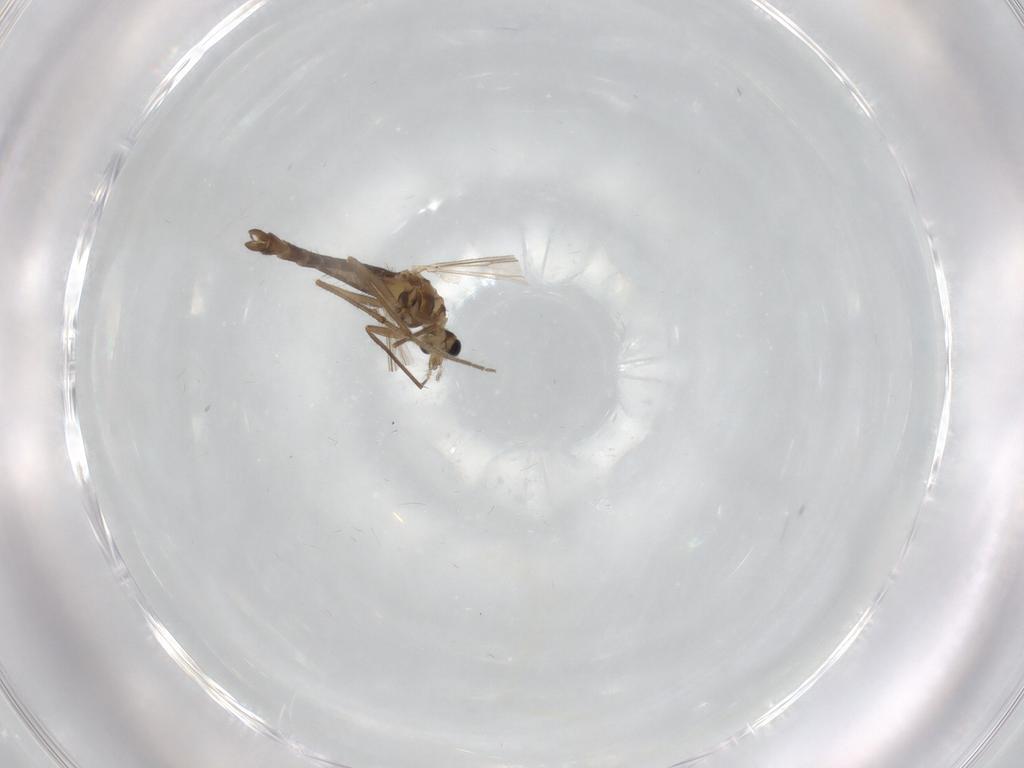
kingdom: Animalia
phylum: Arthropoda
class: Insecta
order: Diptera
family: Chironomidae
